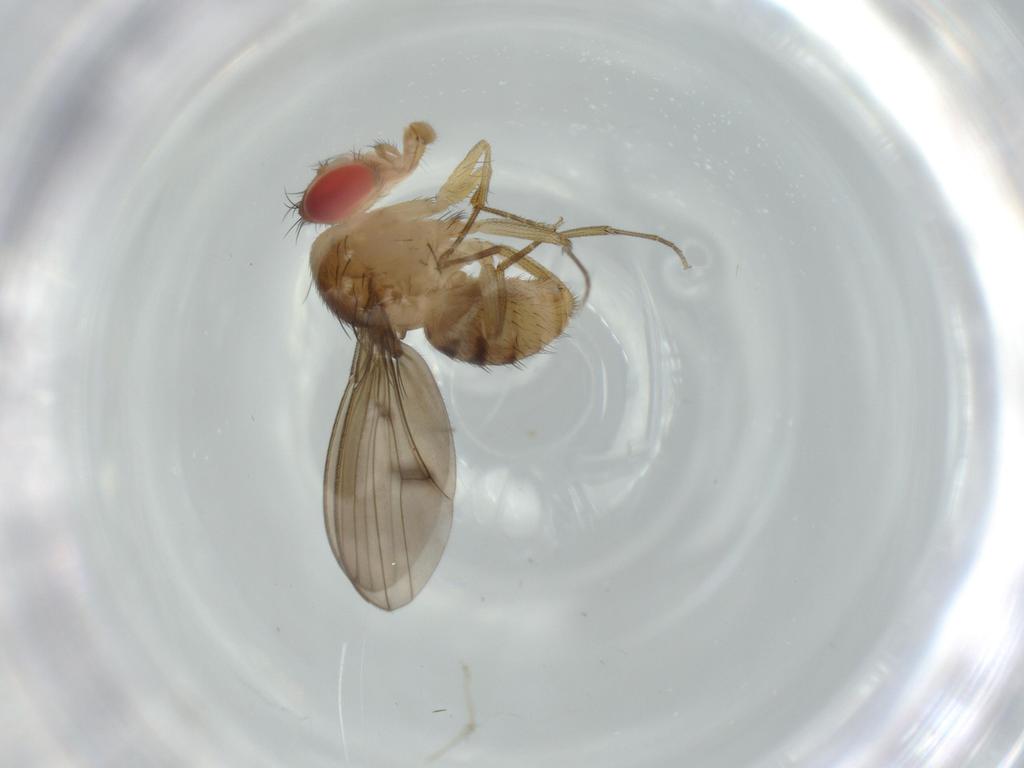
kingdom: Animalia
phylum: Arthropoda
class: Insecta
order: Diptera
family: Drosophilidae
